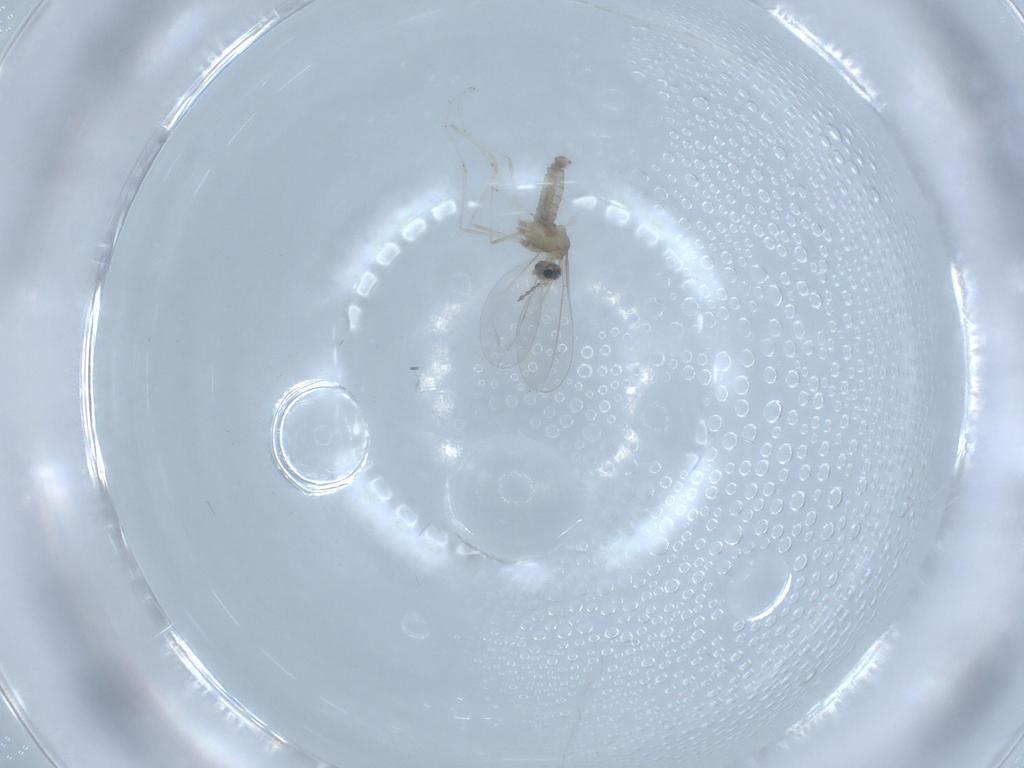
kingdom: Animalia
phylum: Arthropoda
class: Insecta
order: Diptera
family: Cecidomyiidae
